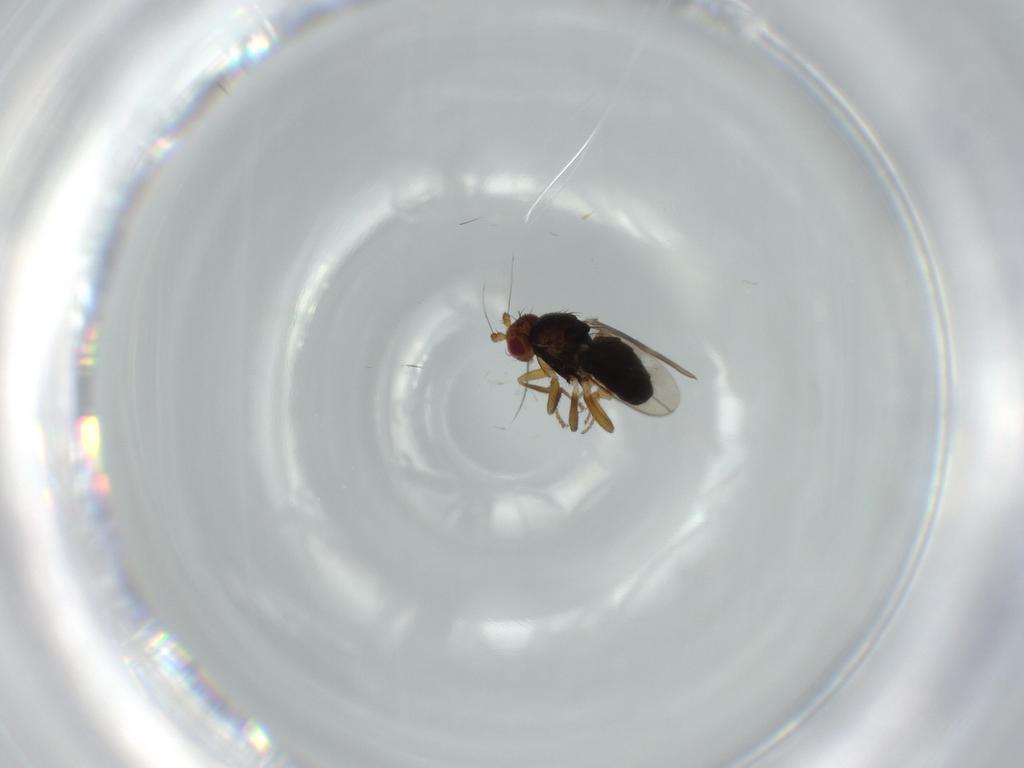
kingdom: Animalia
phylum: Arthropoda
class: Insecta
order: Diptera
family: Sphaeroceridae
